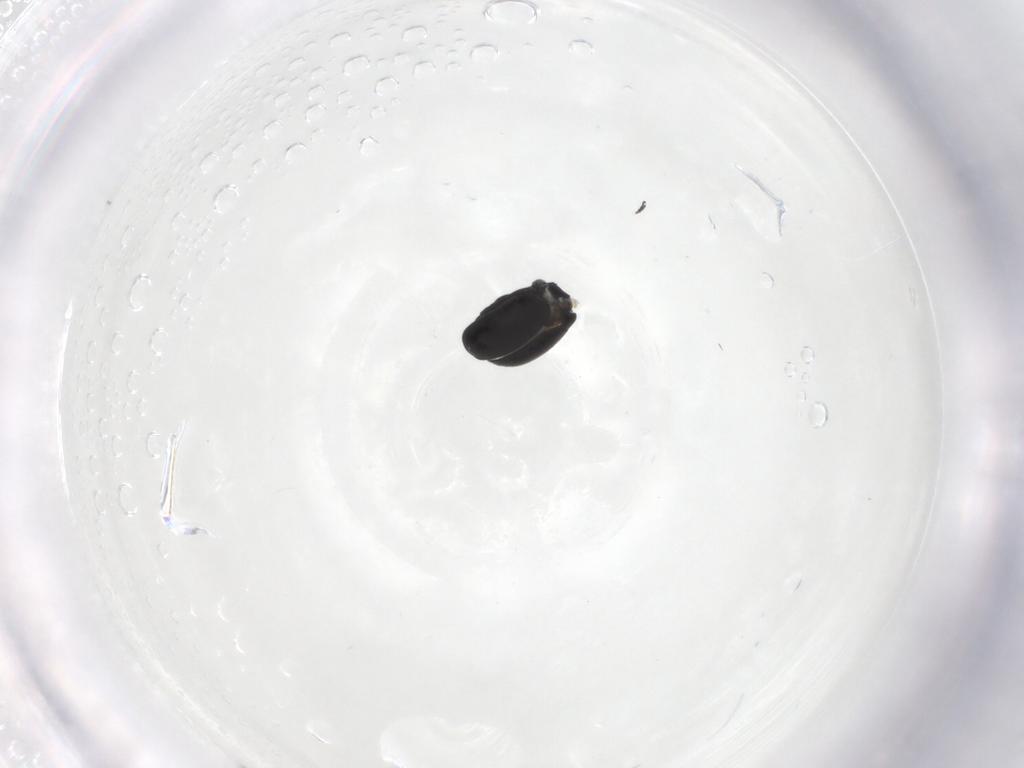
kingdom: Animalia
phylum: Arthropoda
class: Insecta
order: Coleoptera
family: Curculionidae
